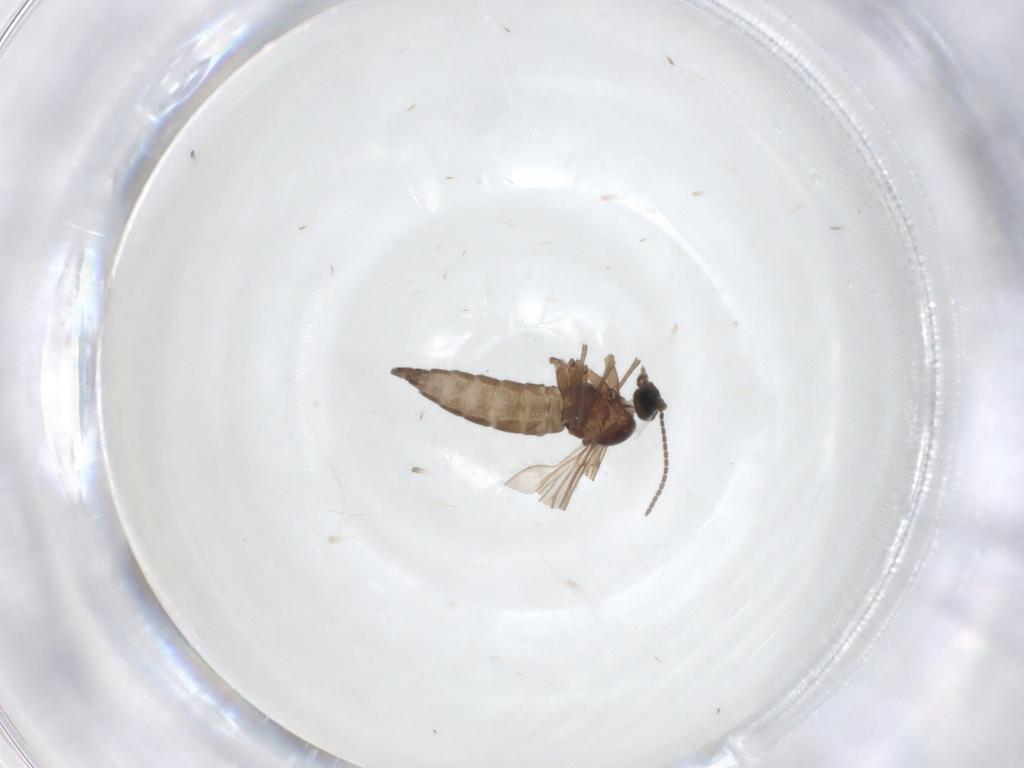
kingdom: Animalia
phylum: Arthropoda
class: Insecta
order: Diptera
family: Sciaridae
